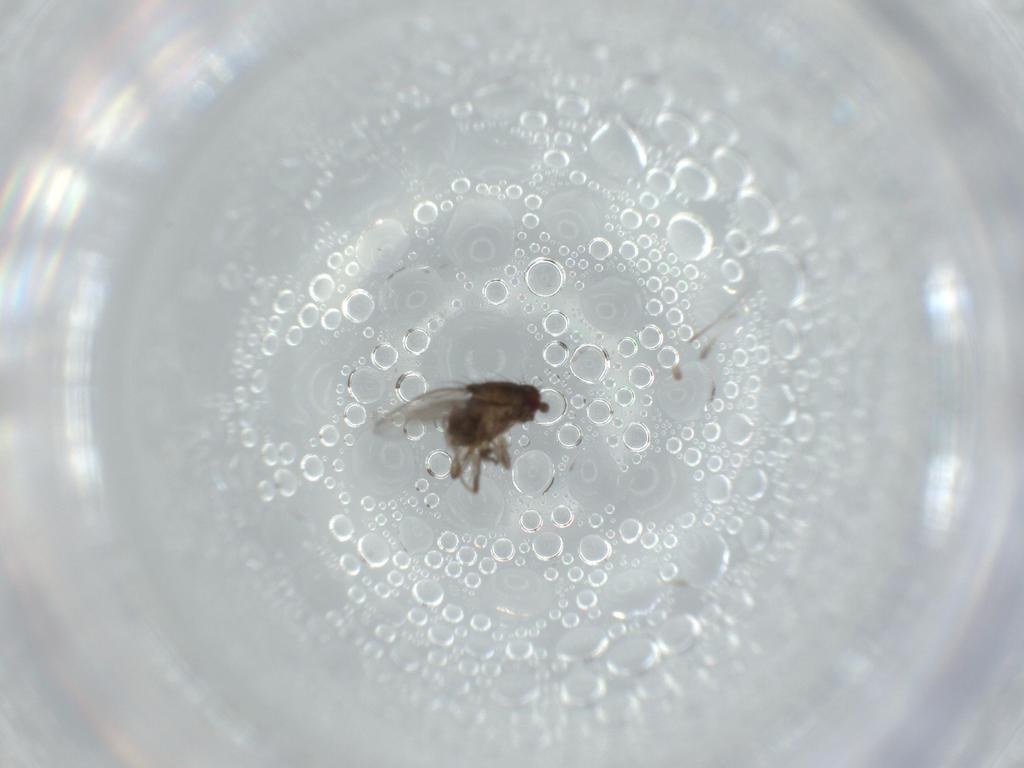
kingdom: Animalia
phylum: Arthropoda
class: Insecta
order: Diptera
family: Sphaeroceridae
